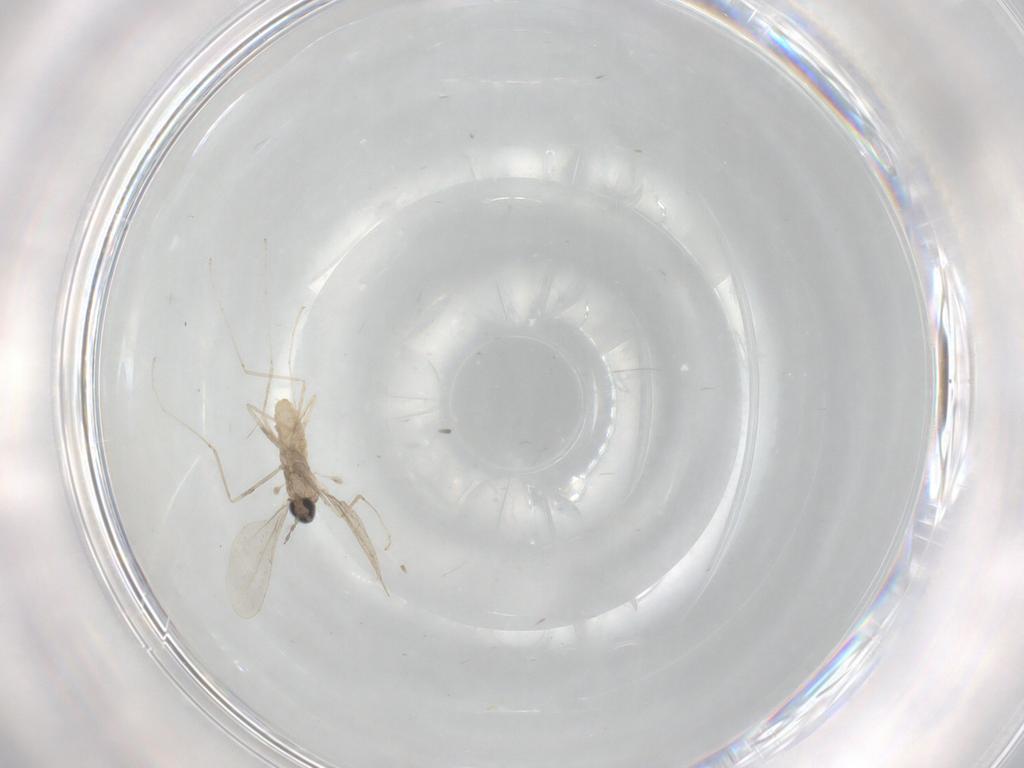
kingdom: Animalia
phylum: Arthropoda
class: Insecta
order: Diptera
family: Cecidomyiidae
